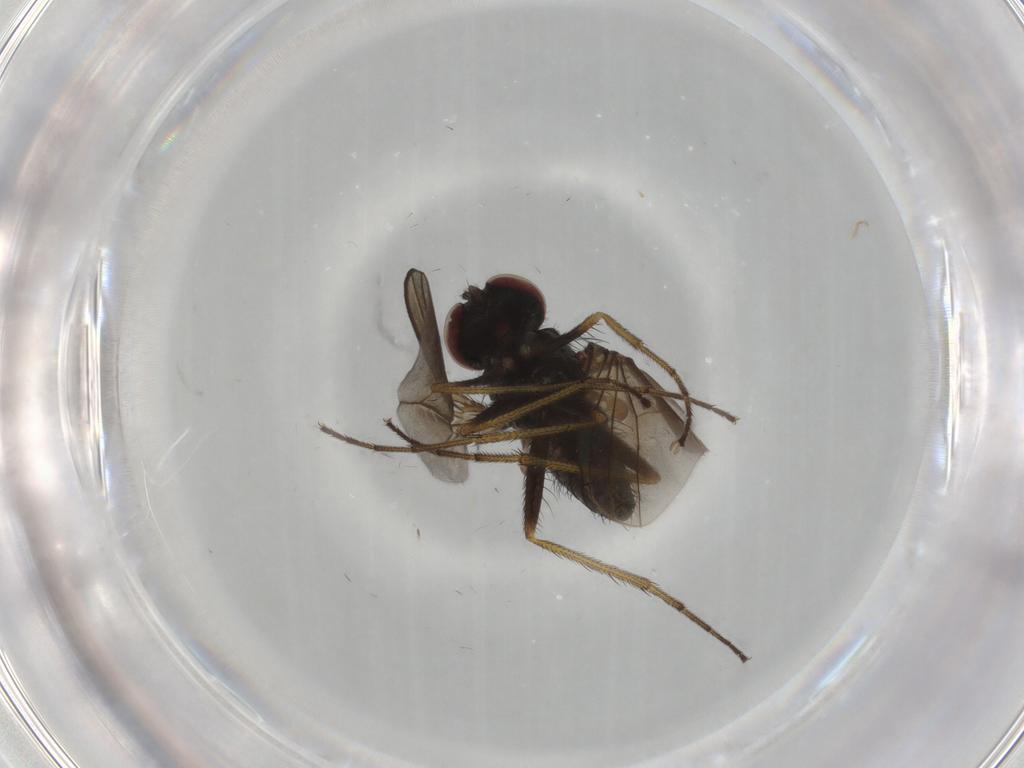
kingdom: Animalia
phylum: Arthropoda
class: Insecta
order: Diptera
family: Dolichopodidae
